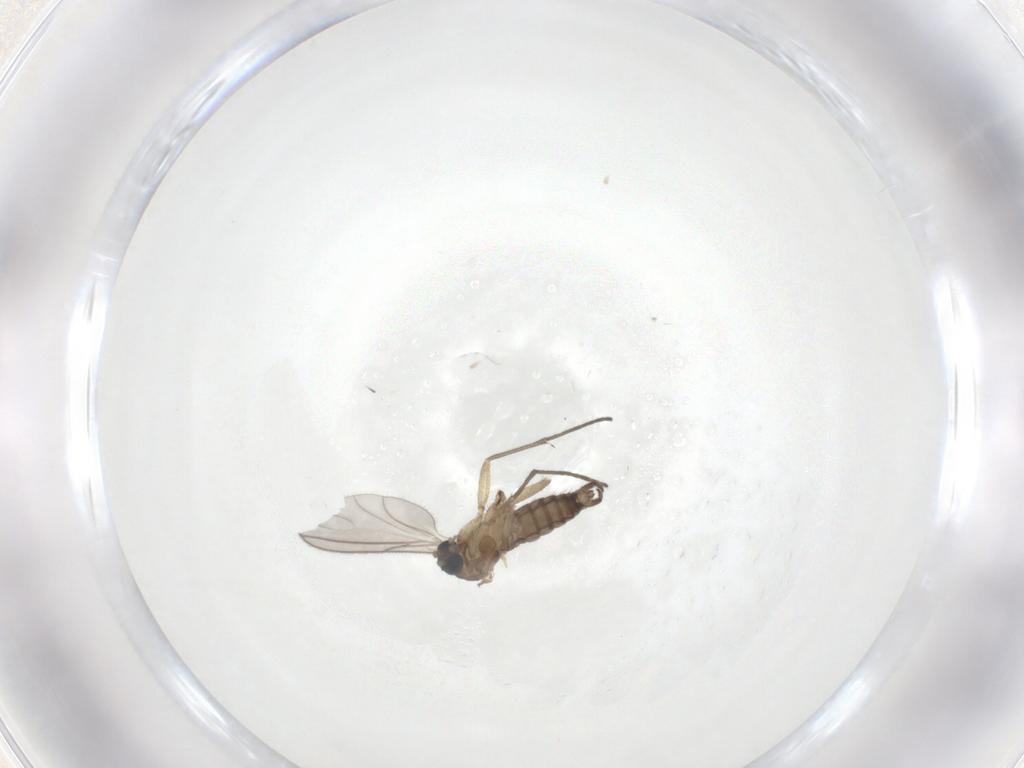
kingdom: Animalia
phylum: Arthropoda
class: Insecta
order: Diptera
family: Sciaridae
